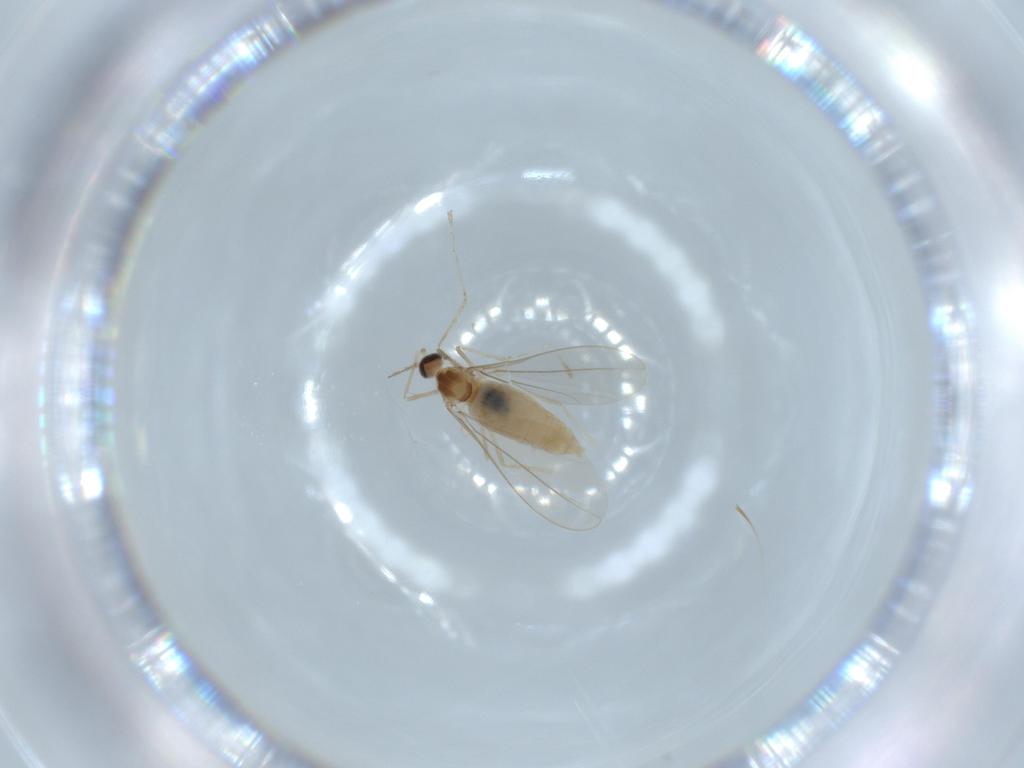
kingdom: Animalia
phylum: Arthropoda
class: Insecta
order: Diptera
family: Cecidomyiidae
